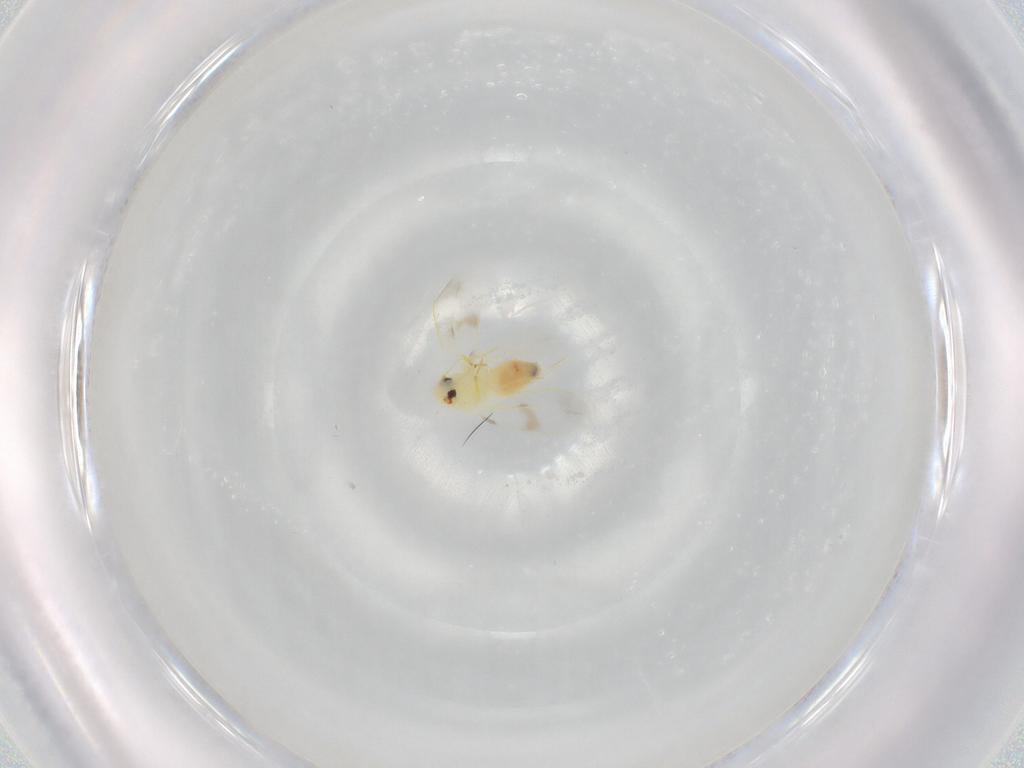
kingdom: Animalia
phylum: Arthropoda
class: Insecta
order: Hemiptera
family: Aleyrodidae
